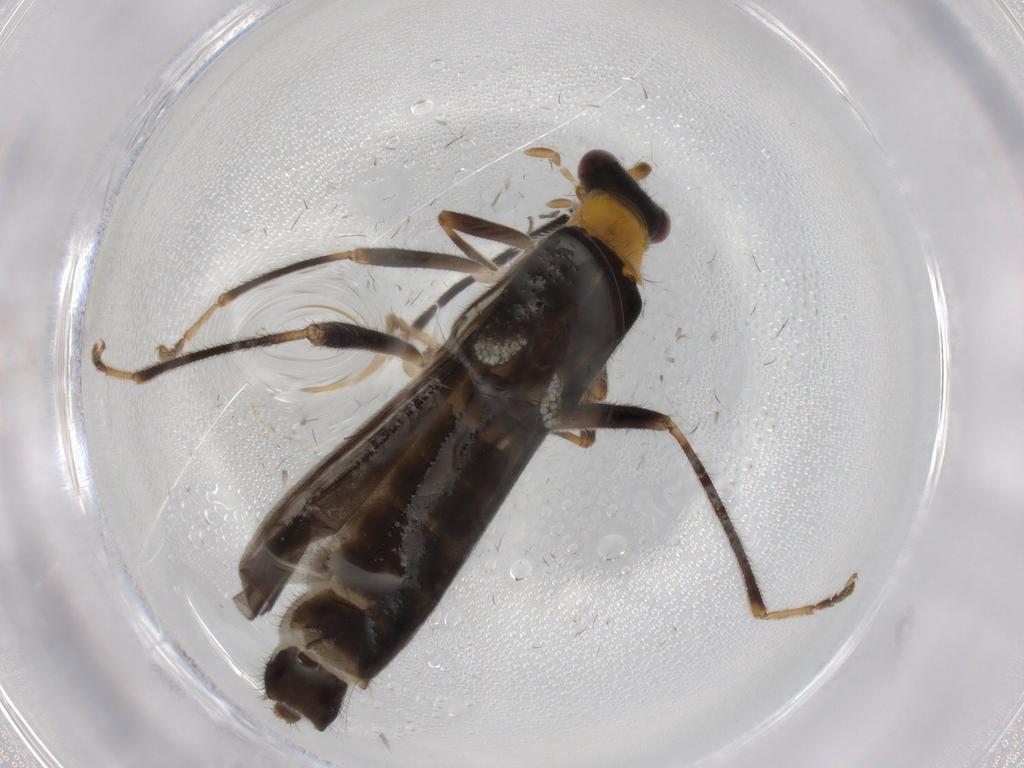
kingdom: Animalia
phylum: Arthropoda
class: Insecta
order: Coleoptera
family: Cantharidae
